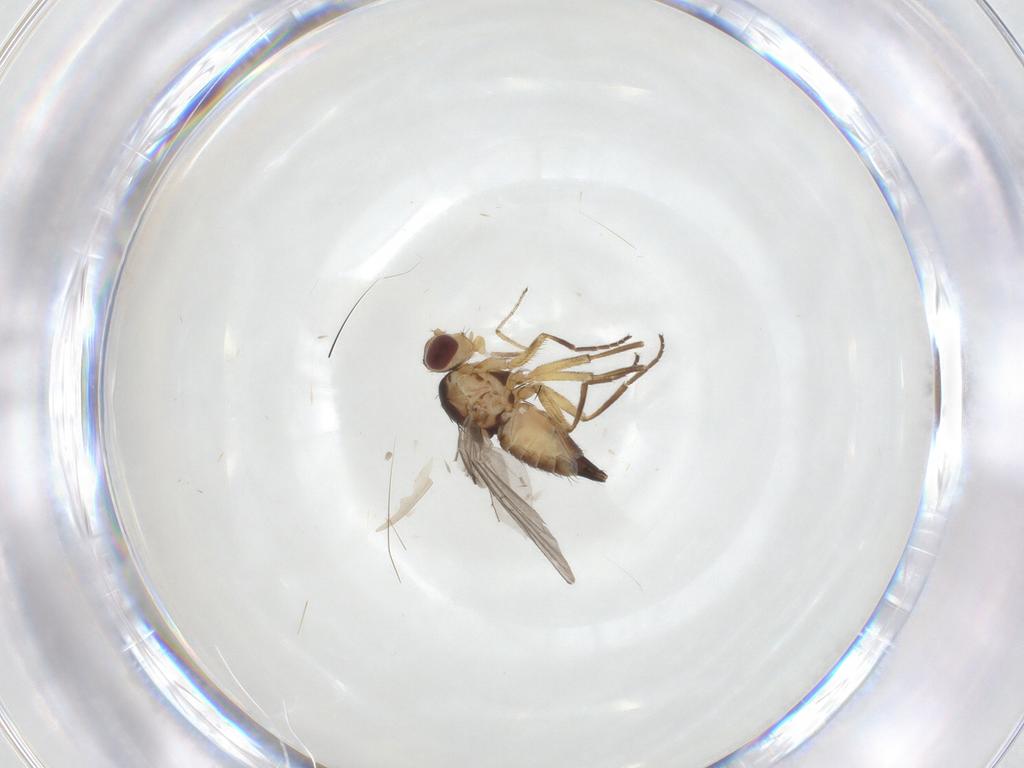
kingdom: Animalia
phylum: Arthropoda
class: Insecta
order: Diptera
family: Agromyzidae
